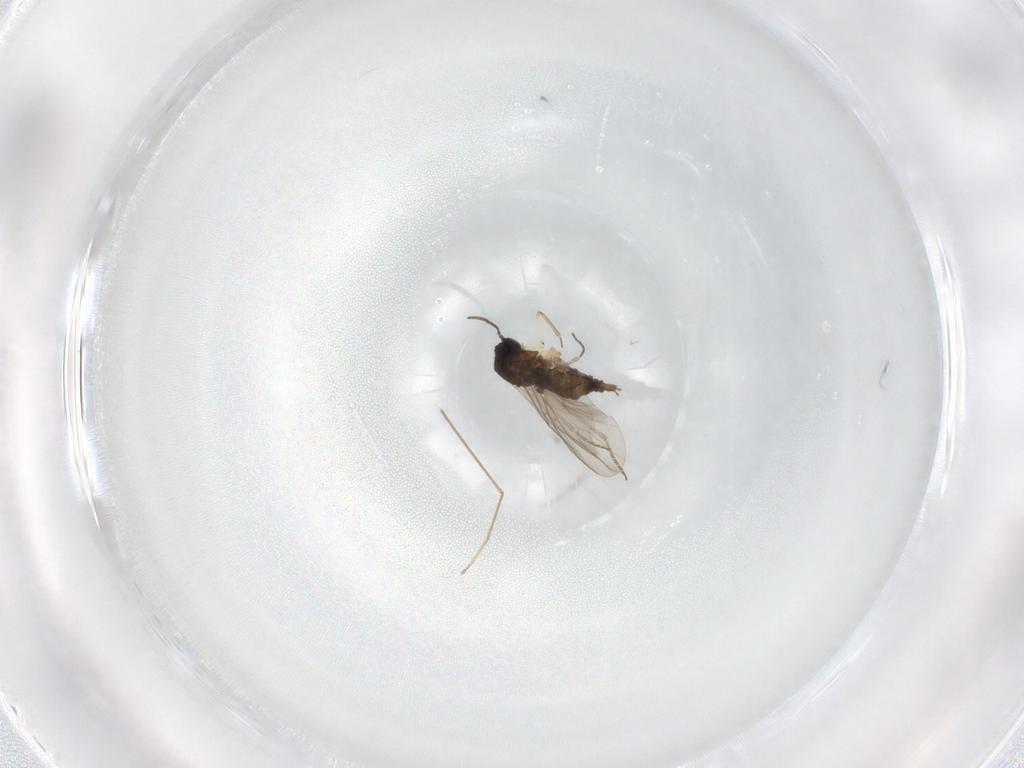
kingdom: Animalia
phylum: Arthropoda
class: Insecta
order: Diptera
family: Sciaridae
